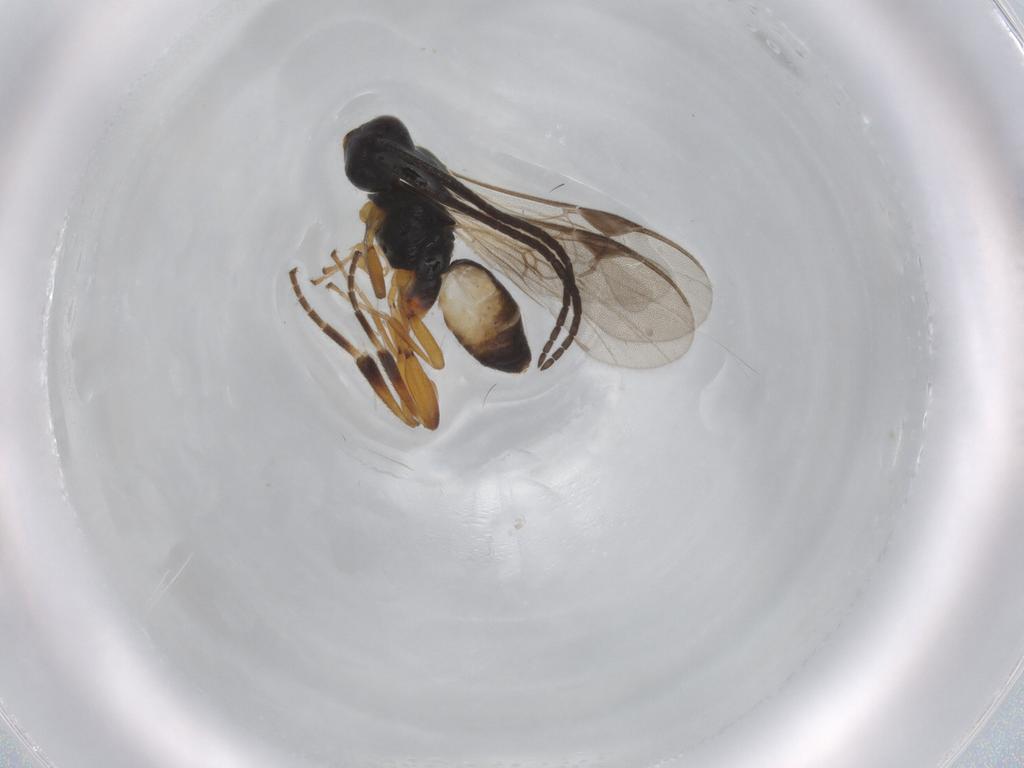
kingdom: Animalia
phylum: Arthropoda
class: Insecta
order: Hymenoptera
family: Braconidae
